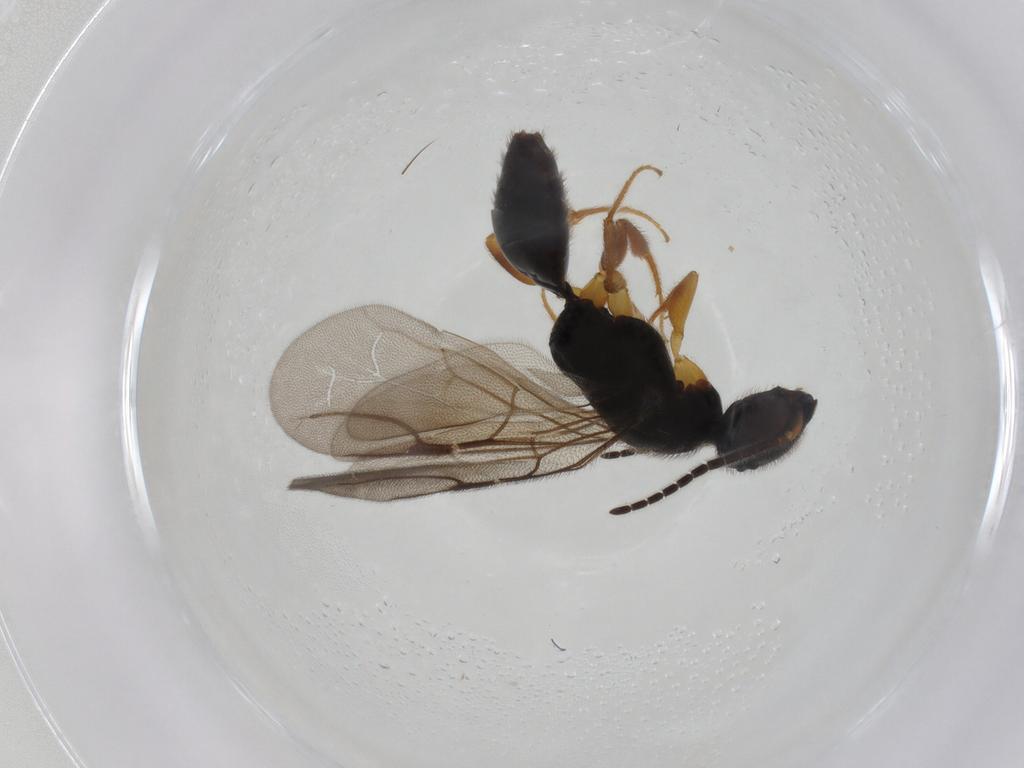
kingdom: Animalia
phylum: Arthropoda
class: Insecta
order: Hymenoptera
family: Bethylidae
